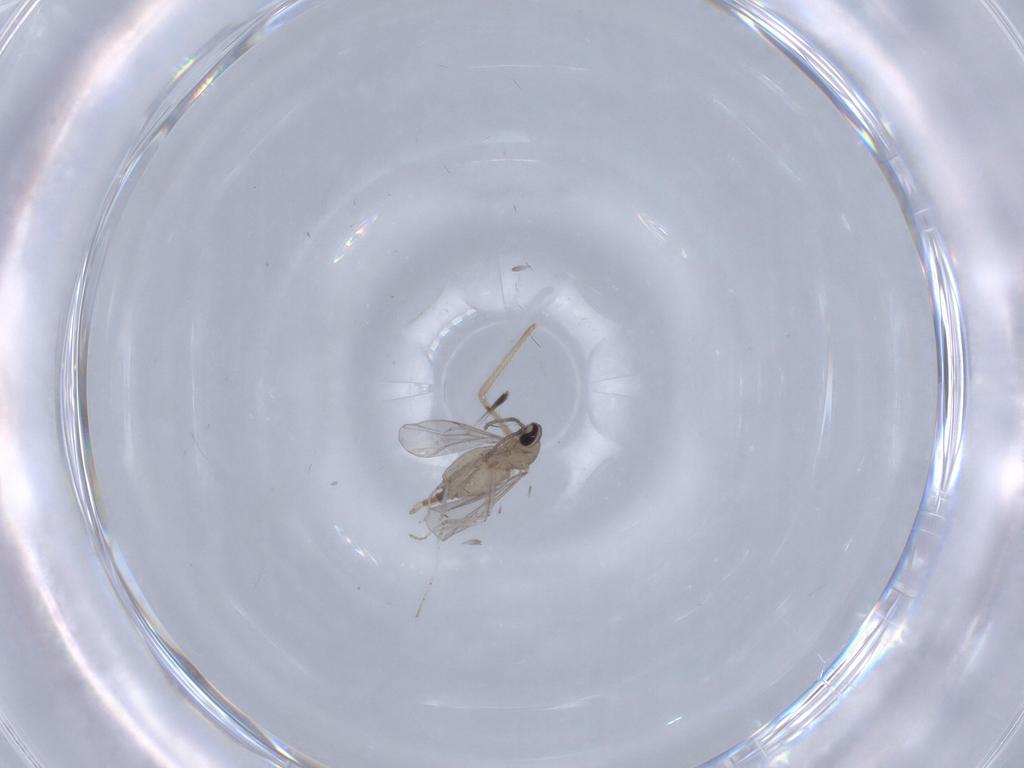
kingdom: Animalia
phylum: Arthropoda
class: Insecta
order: Diptera
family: Cecidomyiidae
